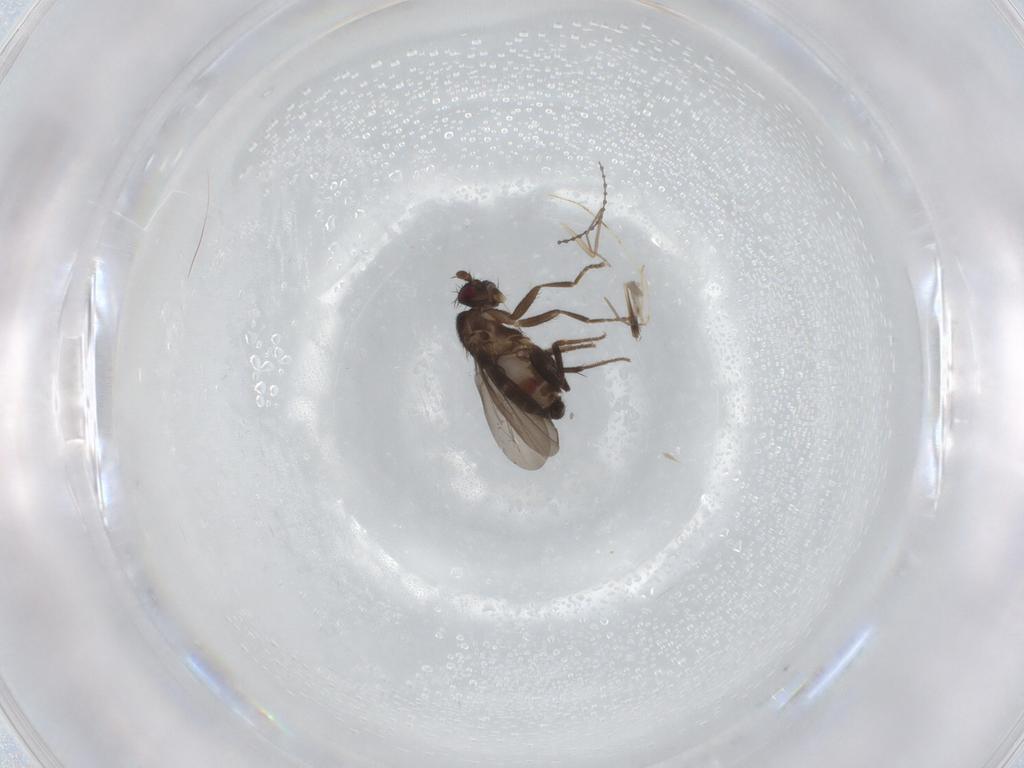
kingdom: Animalia
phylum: Arthropoda
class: Insecta
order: Diptera
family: Sphaeroceridae
